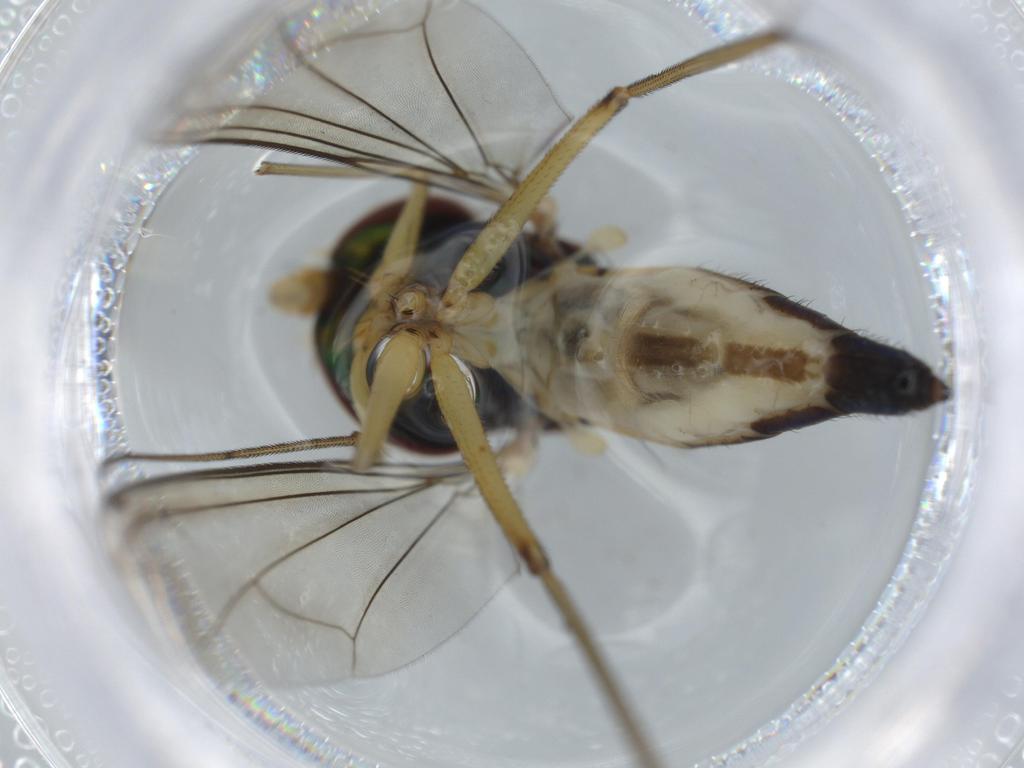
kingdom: Animalia
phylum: Arthropoda
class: Insecta
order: Diptera
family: Dolichopodidae
